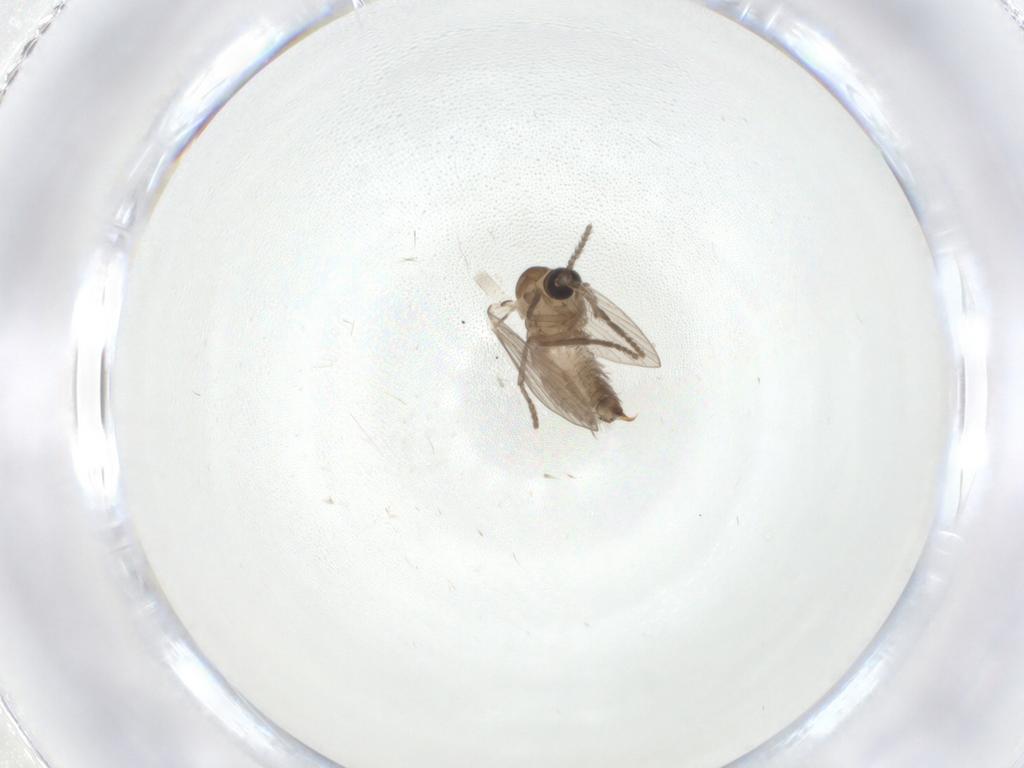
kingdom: Animalia
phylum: Arthropoda
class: Insecta
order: Diptera
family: Psychodidae
